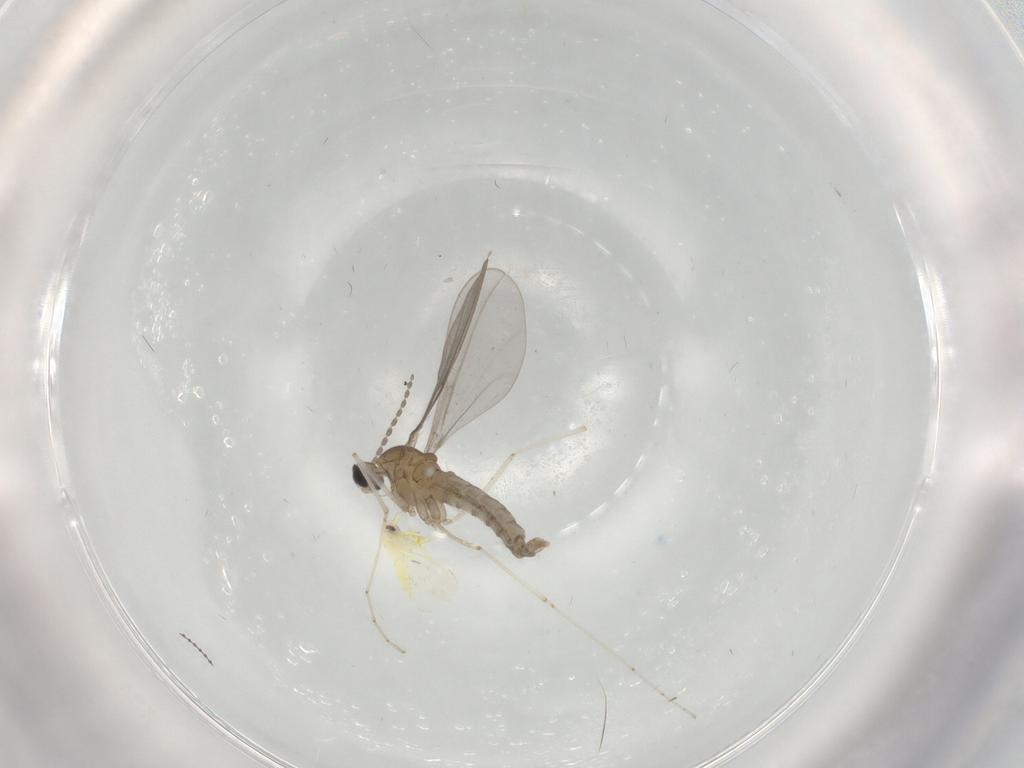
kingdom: Animalia
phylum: Arthropoda
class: Insecta
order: Diptera
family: Cecidomyiidae
